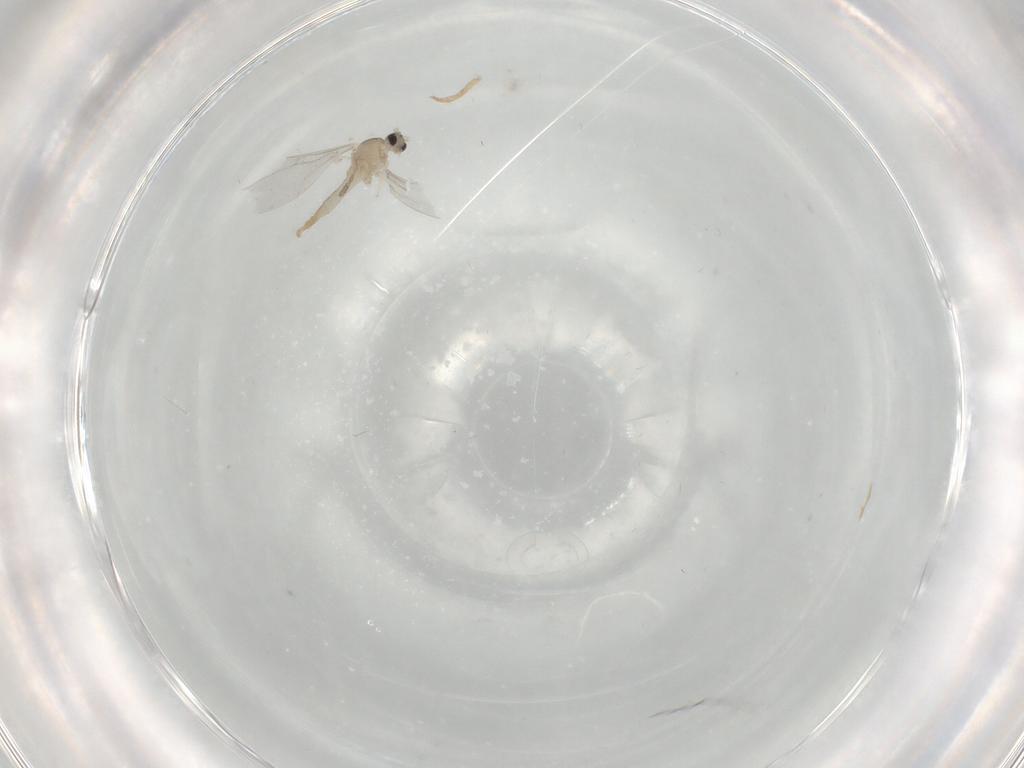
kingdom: Animalia
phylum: Arthropoda
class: Insecta
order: Diptera
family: Cecidomyiidae
